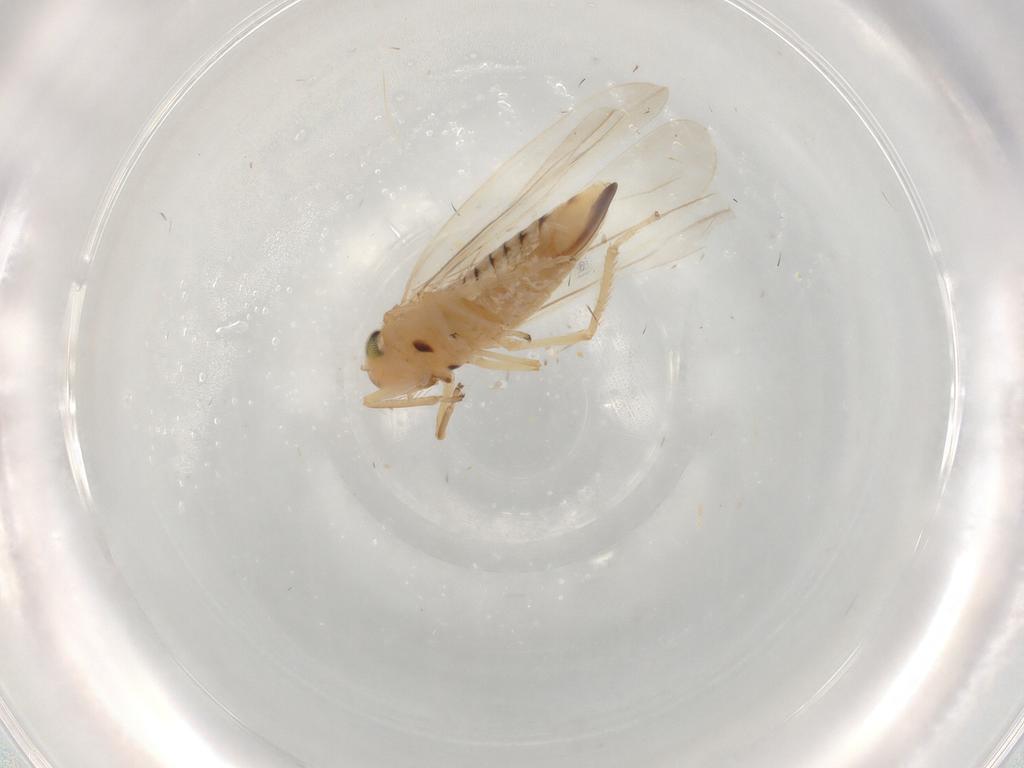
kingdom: Animalia
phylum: Arthropoda
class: Insecta
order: Hemiptera
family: Cicadellidae
